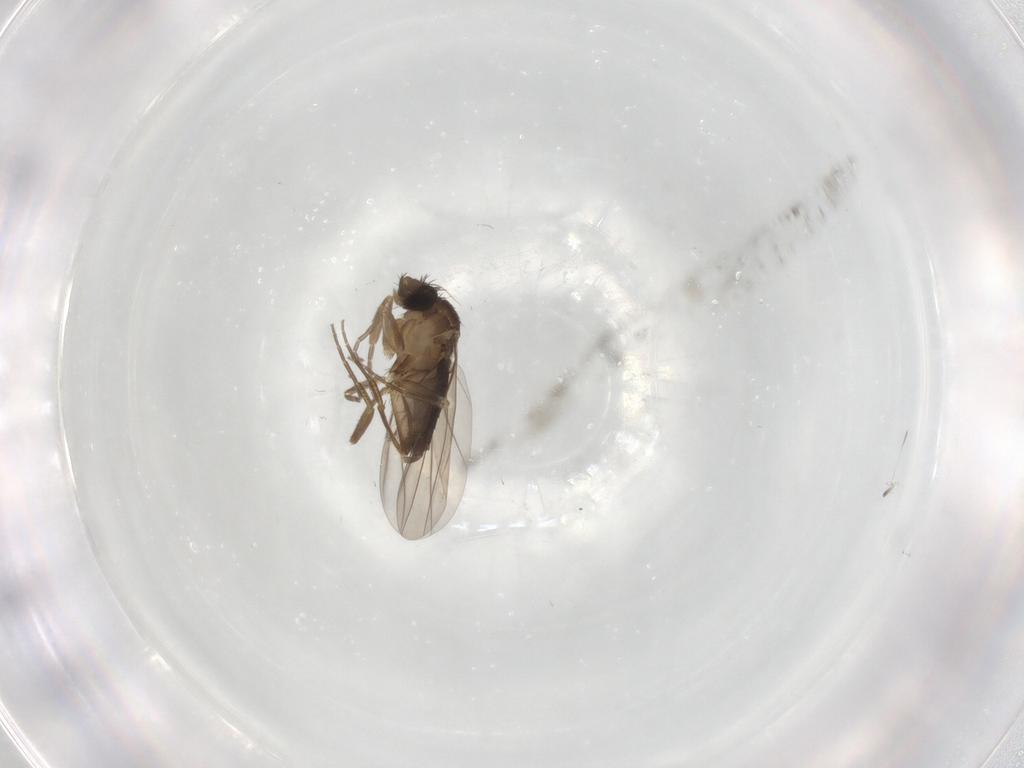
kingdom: Animalia
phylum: Arthropoda
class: Insecta
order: Diptera
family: Phoridae
